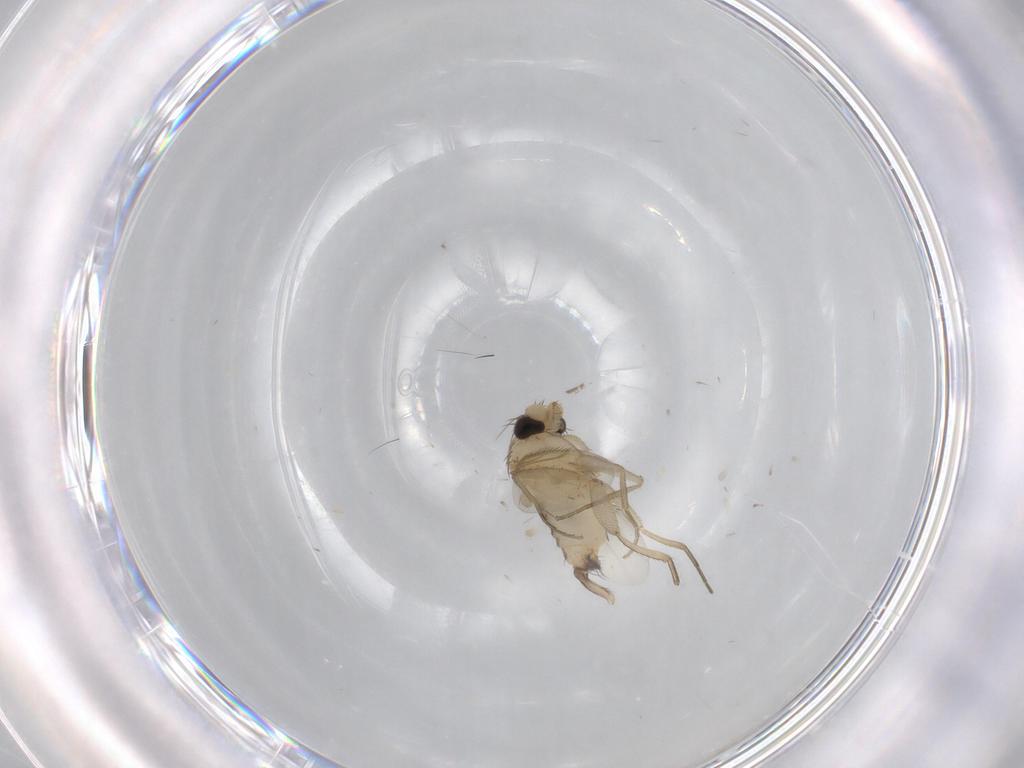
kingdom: Animalia
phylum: Arthropoda
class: Insecta
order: Diptera
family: Phoridae
